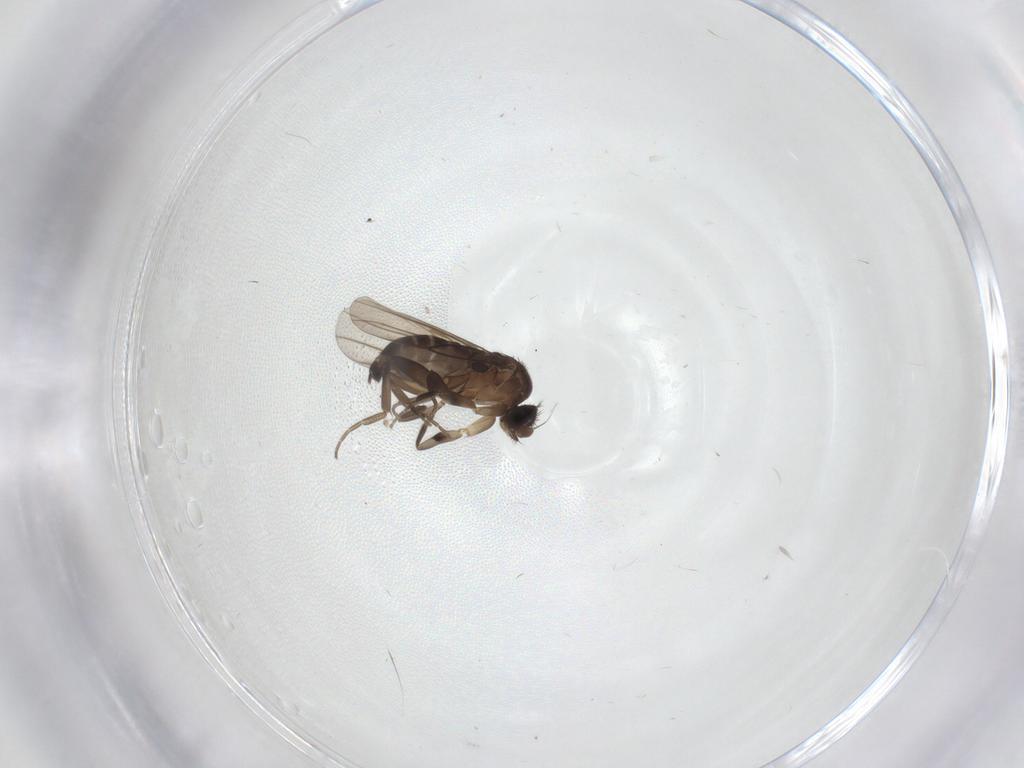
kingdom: Animalia
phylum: Arthropoda
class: Insecta
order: Diptera
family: Phoridae
